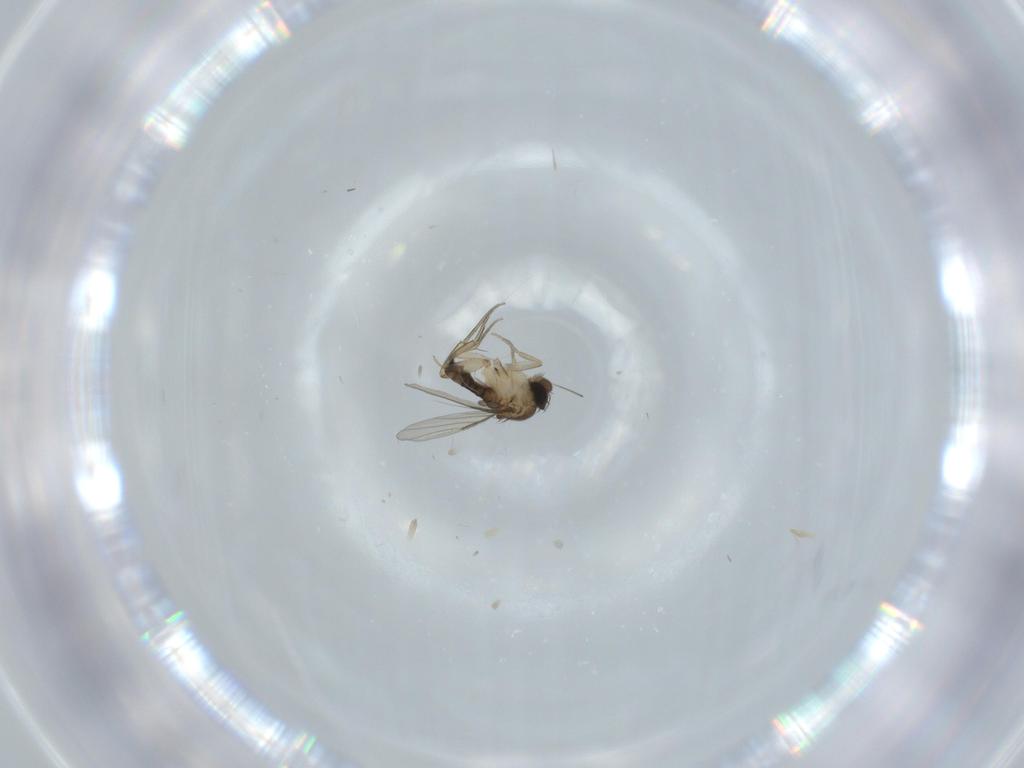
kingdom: Animalia
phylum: Arthropoda
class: Insecta
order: Diptera
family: Phoridae
